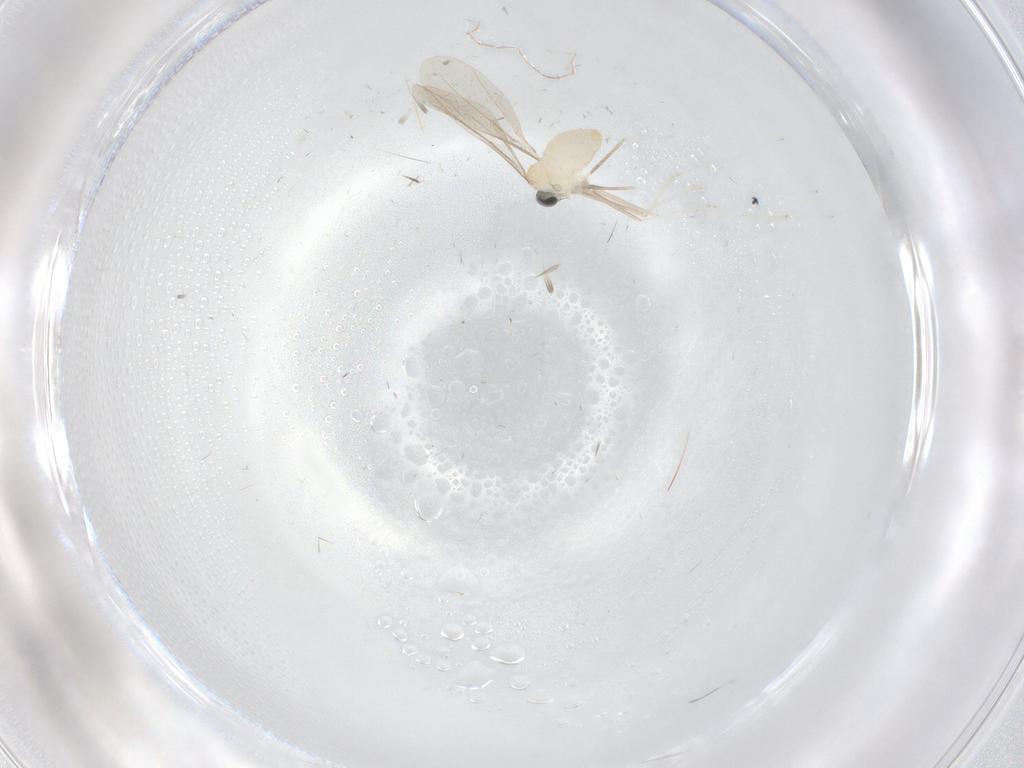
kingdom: Animalia
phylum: Arthropoda
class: Insecta
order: Diptera
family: Cecidomyiidae
